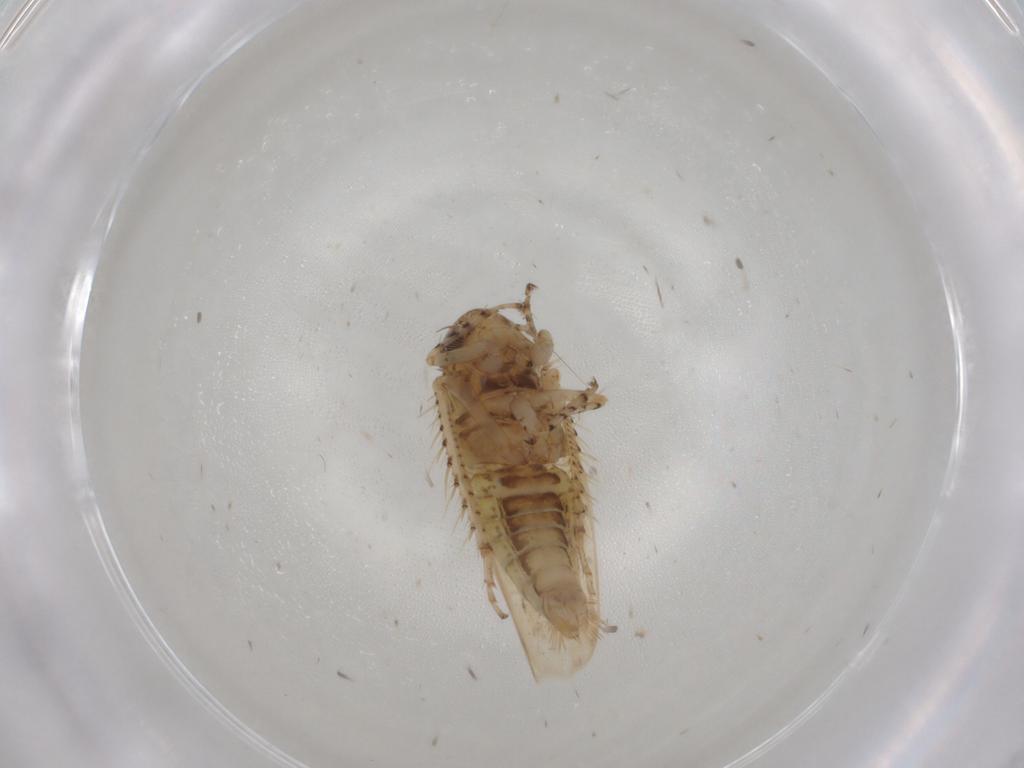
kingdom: Animalia
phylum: Arthropoda
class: Insecta
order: Hemiptera
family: Cicadellidae
